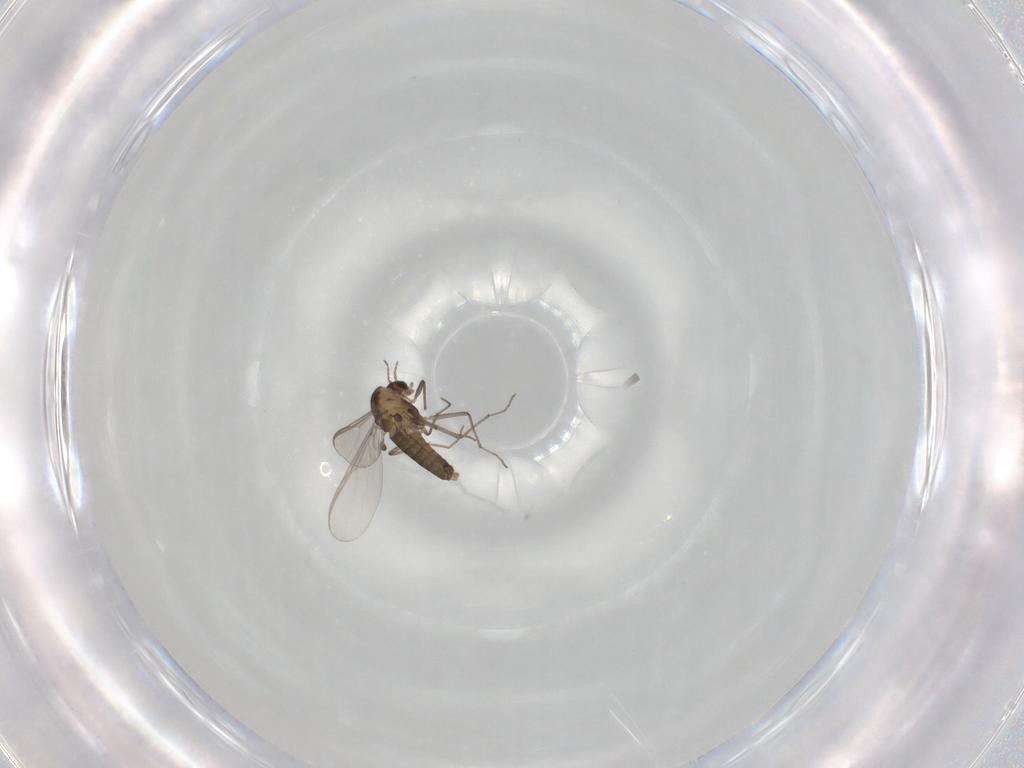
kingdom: Animalia
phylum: Arthropoda
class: Insecta
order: Diptera
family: Chironomidae
